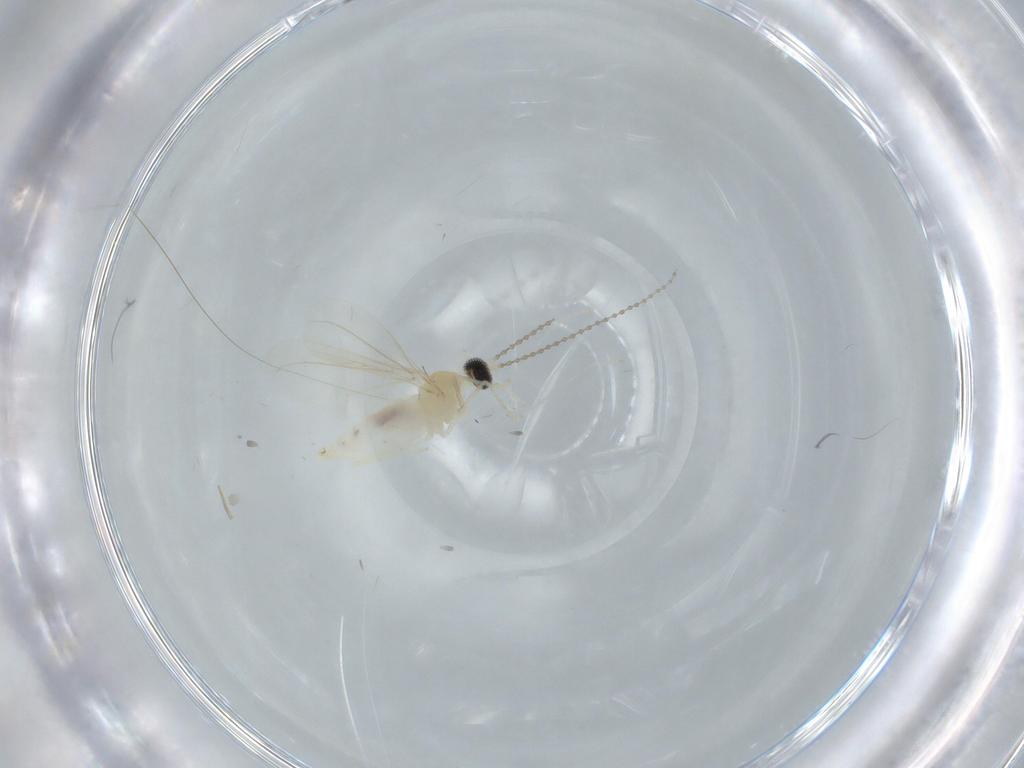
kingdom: Animalia
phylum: Arthropoda
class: Insecta
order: Diptera
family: Cecidomyiidae
